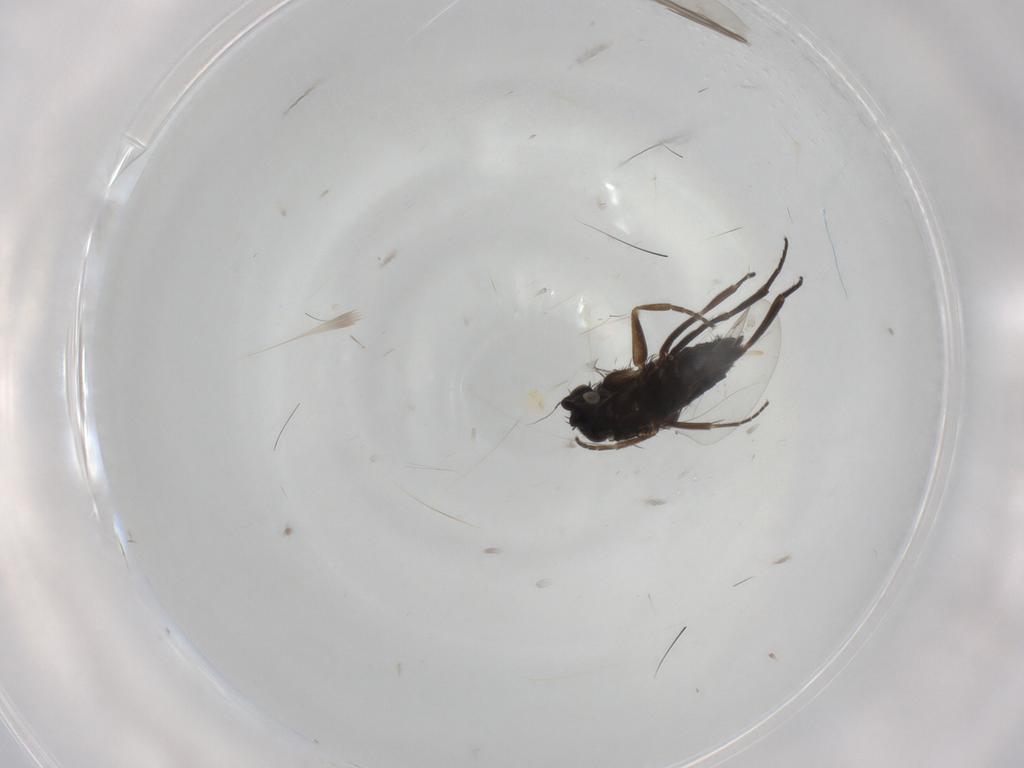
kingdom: Animalia
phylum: Arthropoda
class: Insecta
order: Diptera
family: Phoridae
